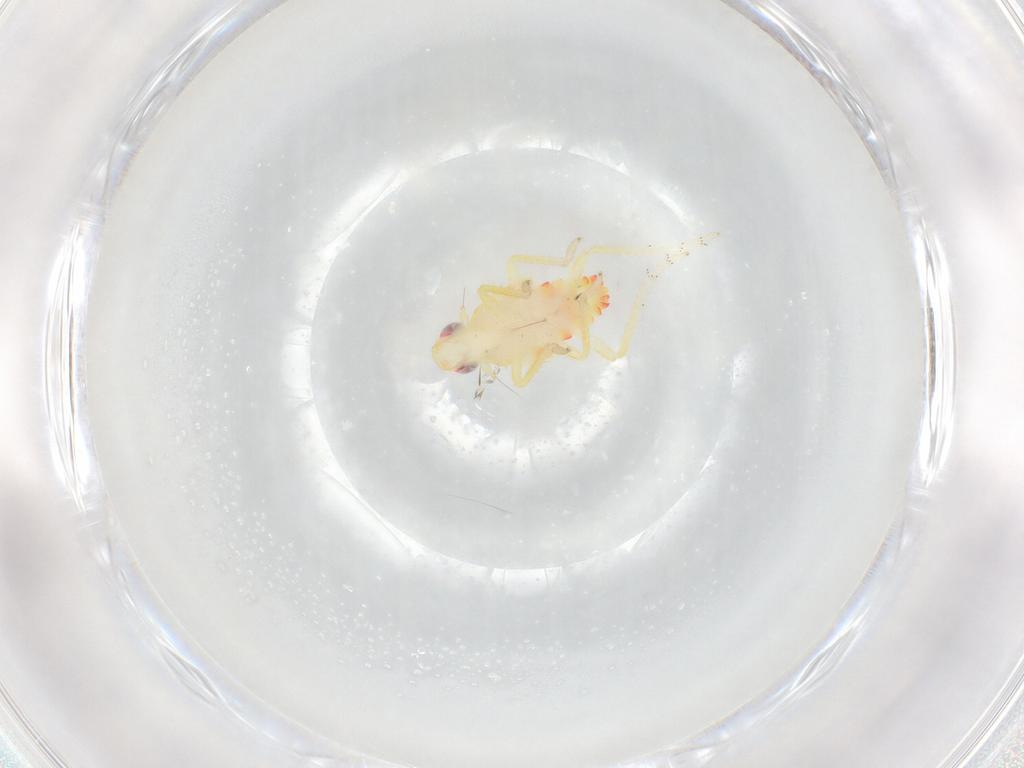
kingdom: Animalia
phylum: Arthropoda
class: Insecta
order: Hemiptera
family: Tropiduchidae
